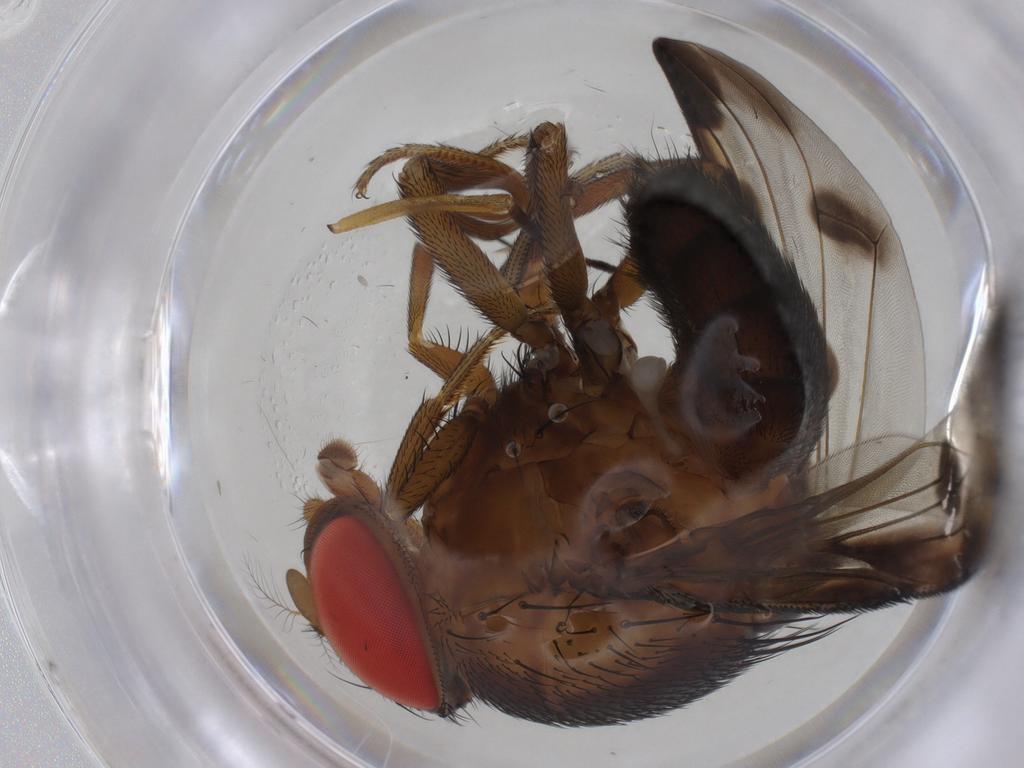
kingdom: Animalia
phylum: Arthropoda
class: Insecta
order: Diptera
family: Drosophilidae
